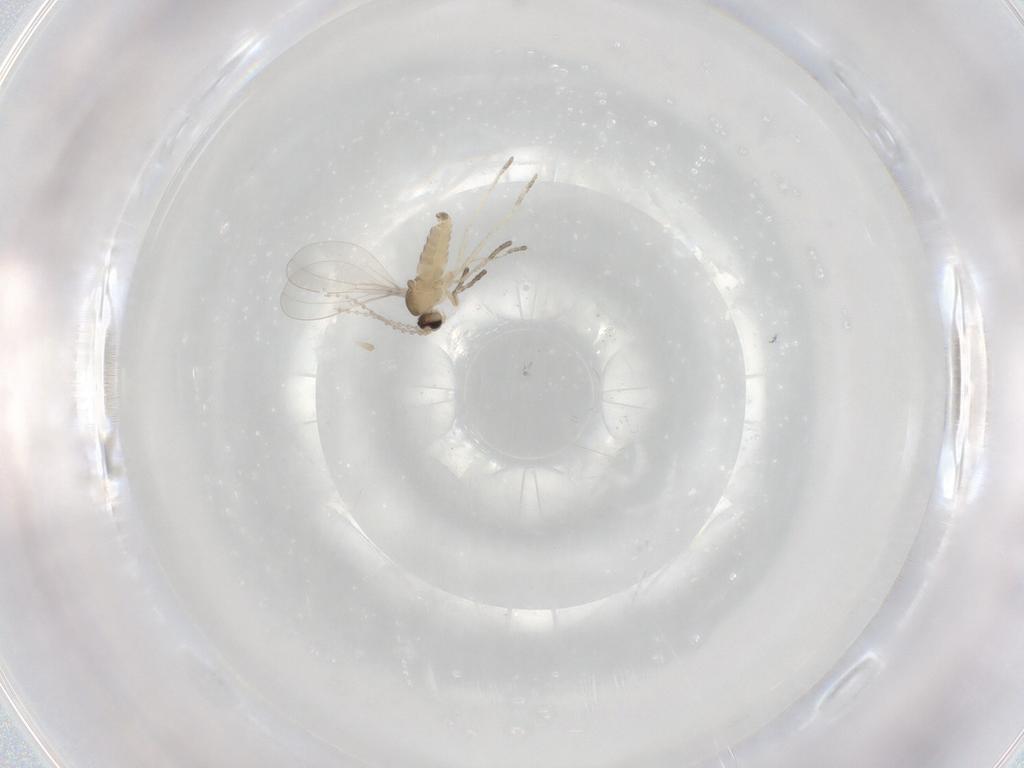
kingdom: Animalia
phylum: Arthropoda
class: Insecta
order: Diptera
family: Cecidomyiidae
